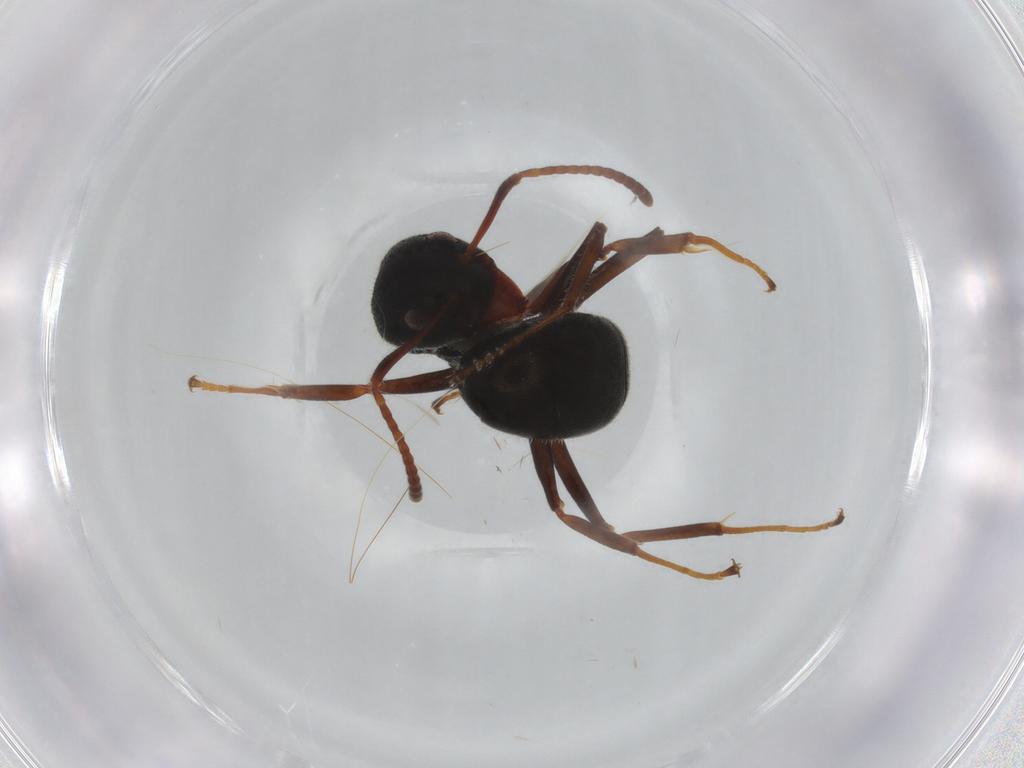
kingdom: Animalia
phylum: Arthropoda
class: Insecta
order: Hymenoptera
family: Formicidae
